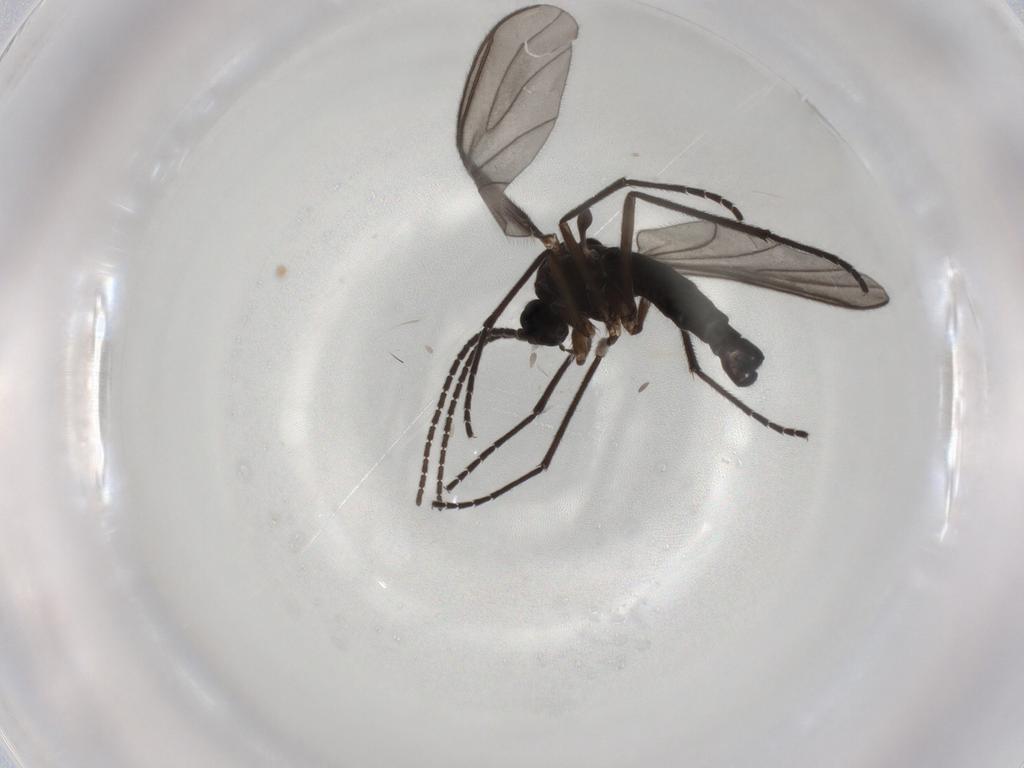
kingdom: Animalia
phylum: Arthropoda
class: Insecta
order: Diptera
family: Sciaridae
